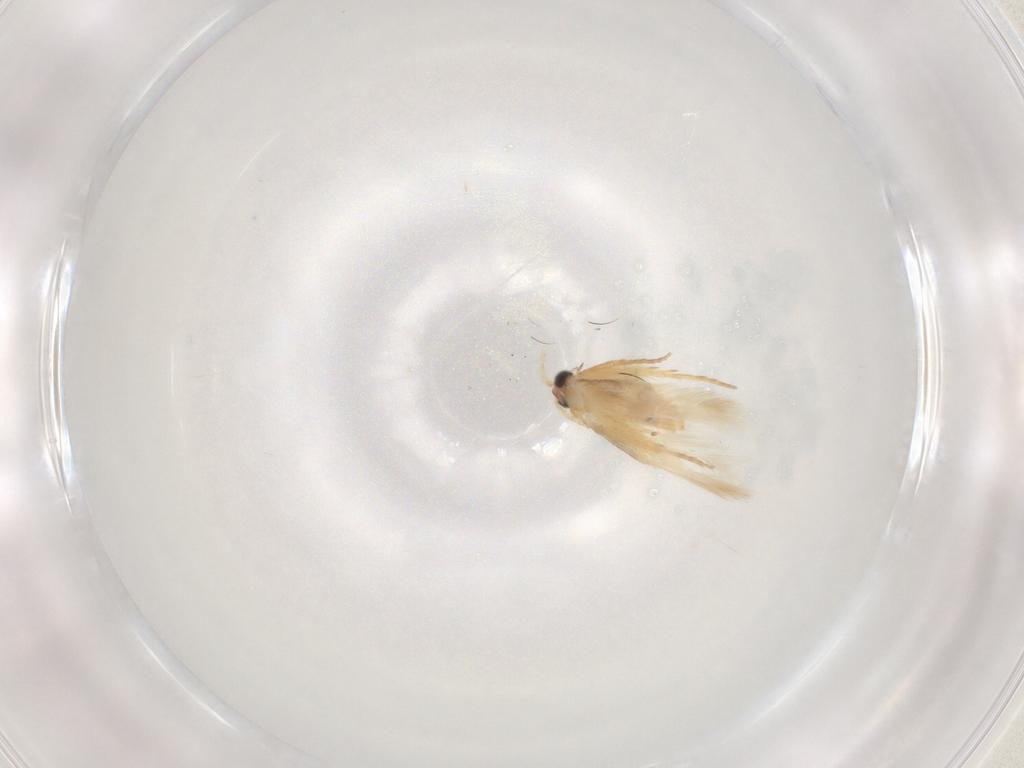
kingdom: Animalia
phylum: Arthropoda
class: Insecta
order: Lepidoptera
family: Nepticulidae
